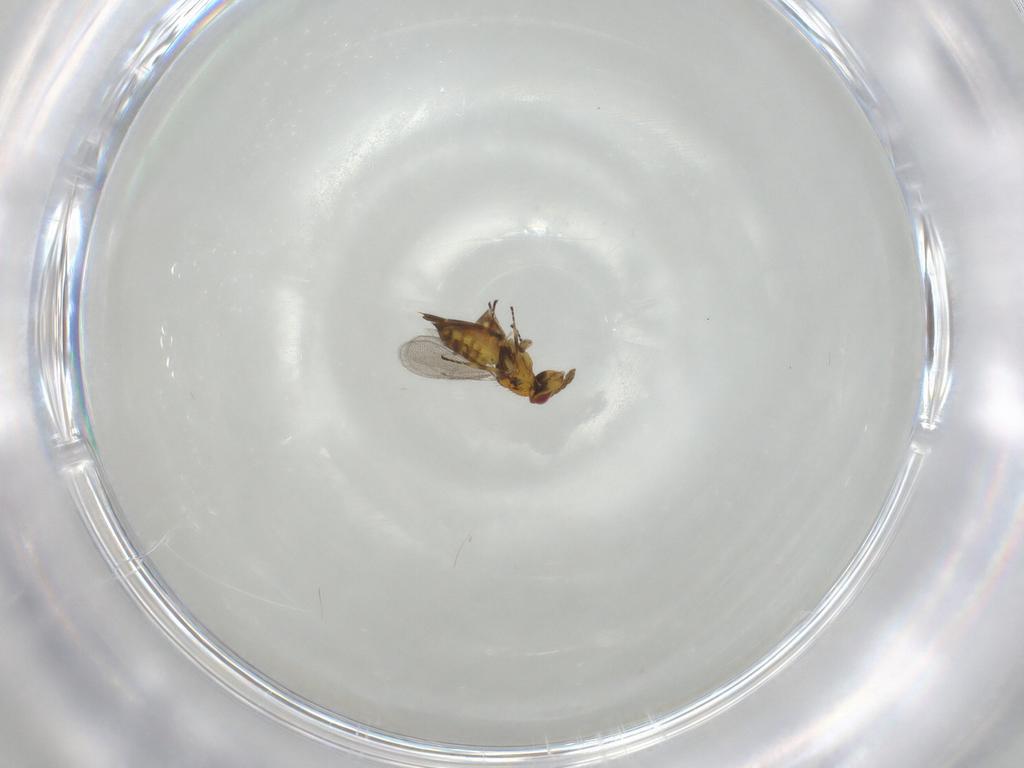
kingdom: Animalia
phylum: Arthropoda
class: Insecta
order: Hymenoptera
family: Eulophidae
